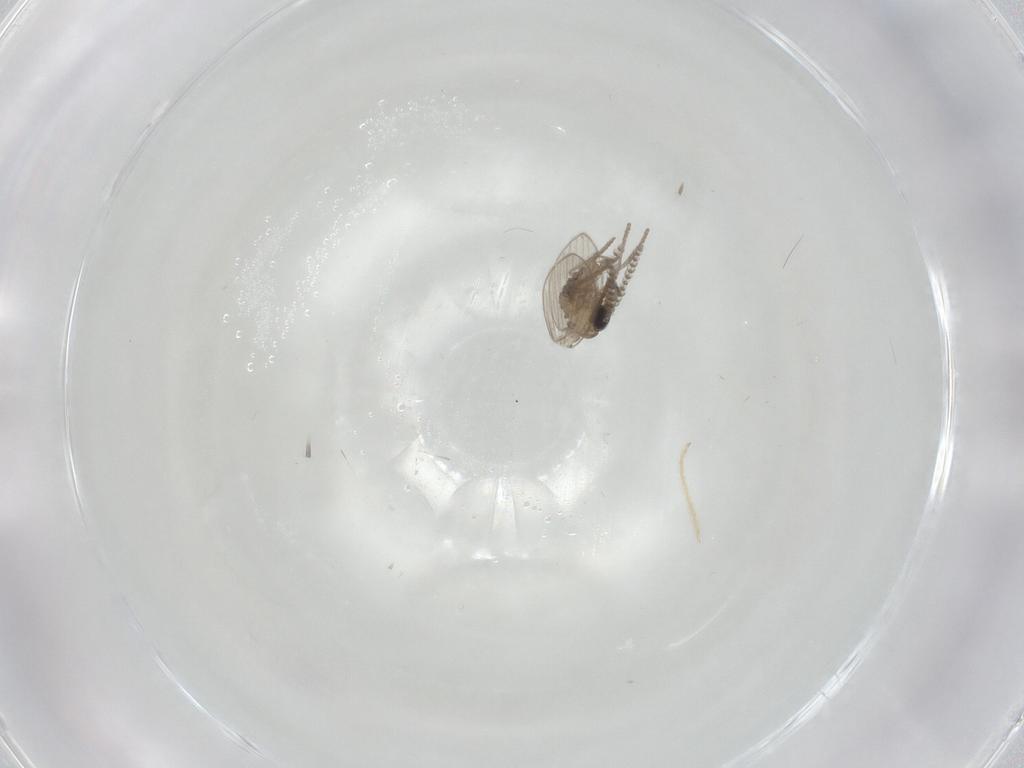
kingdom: Animalia
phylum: Arthropoda
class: Insecta
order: Diptera
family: Psychodidae
